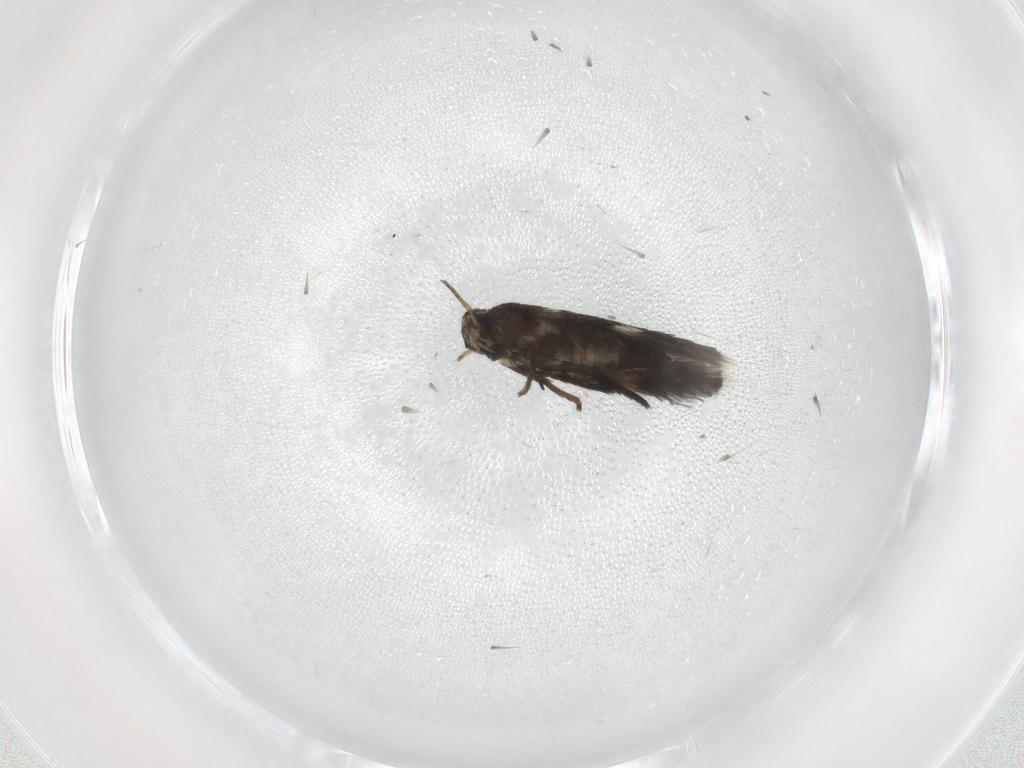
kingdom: Animalia
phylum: Arthropoda
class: Insecta
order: Lepidoptera
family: Heliozelidae
